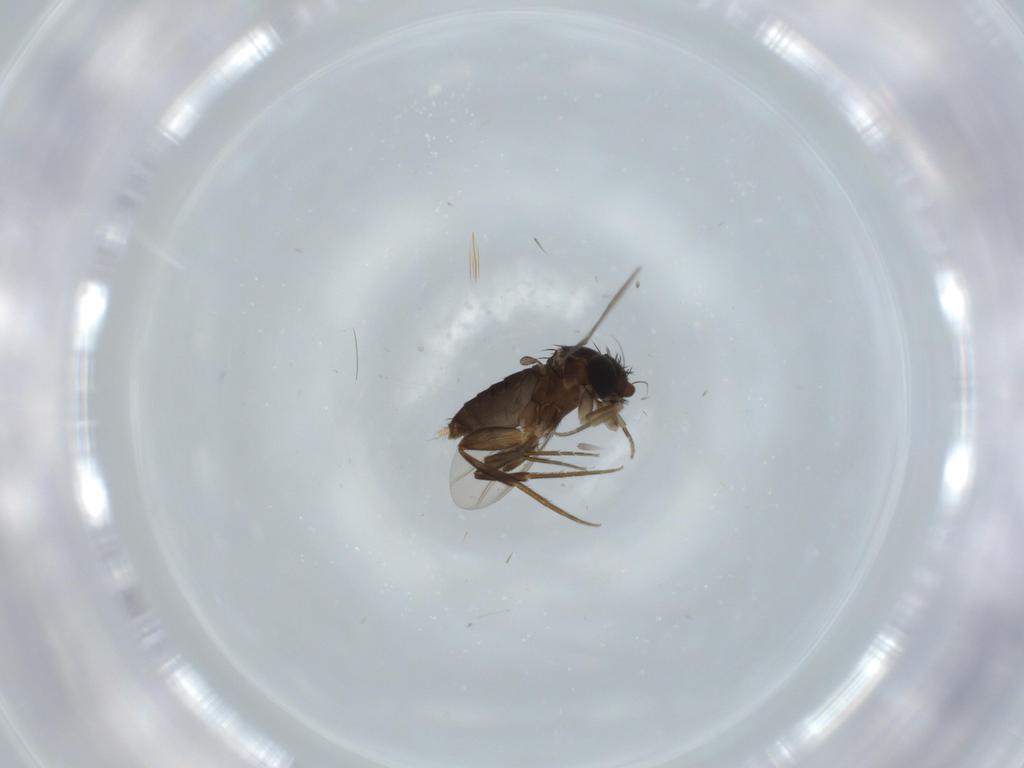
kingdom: Animalia
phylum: Arthropoda
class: Insecta
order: Diptera
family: Phoridae
